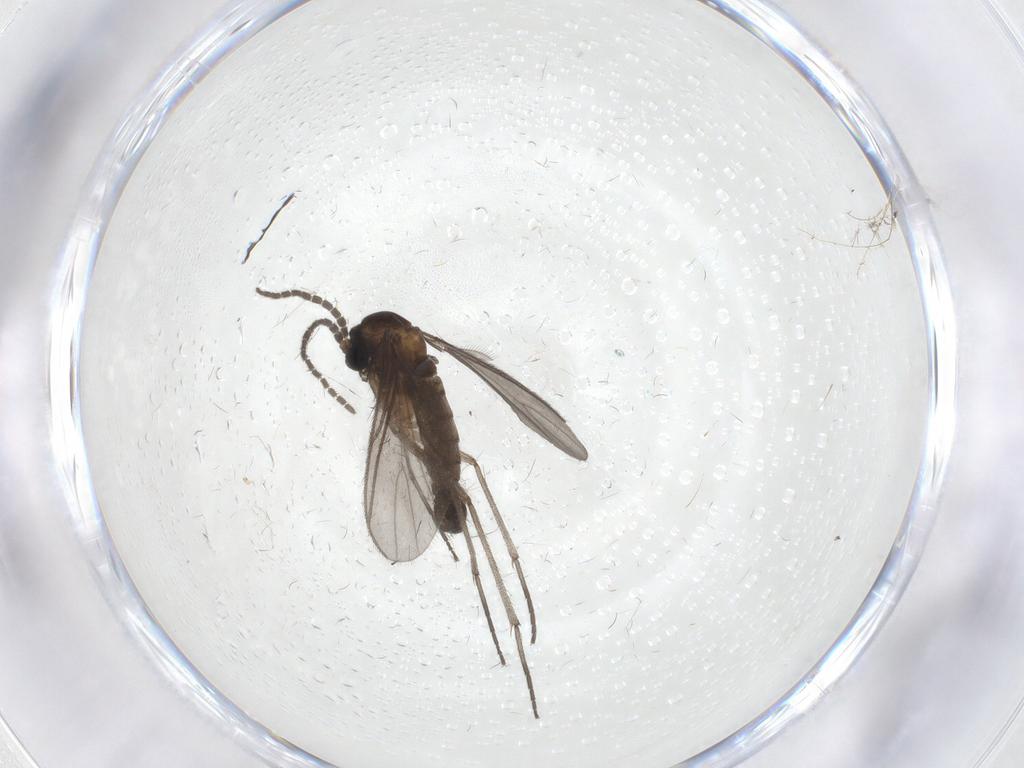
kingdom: Animalia
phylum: Arthropoda
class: Insecta
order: Diptera
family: Sciaridae
